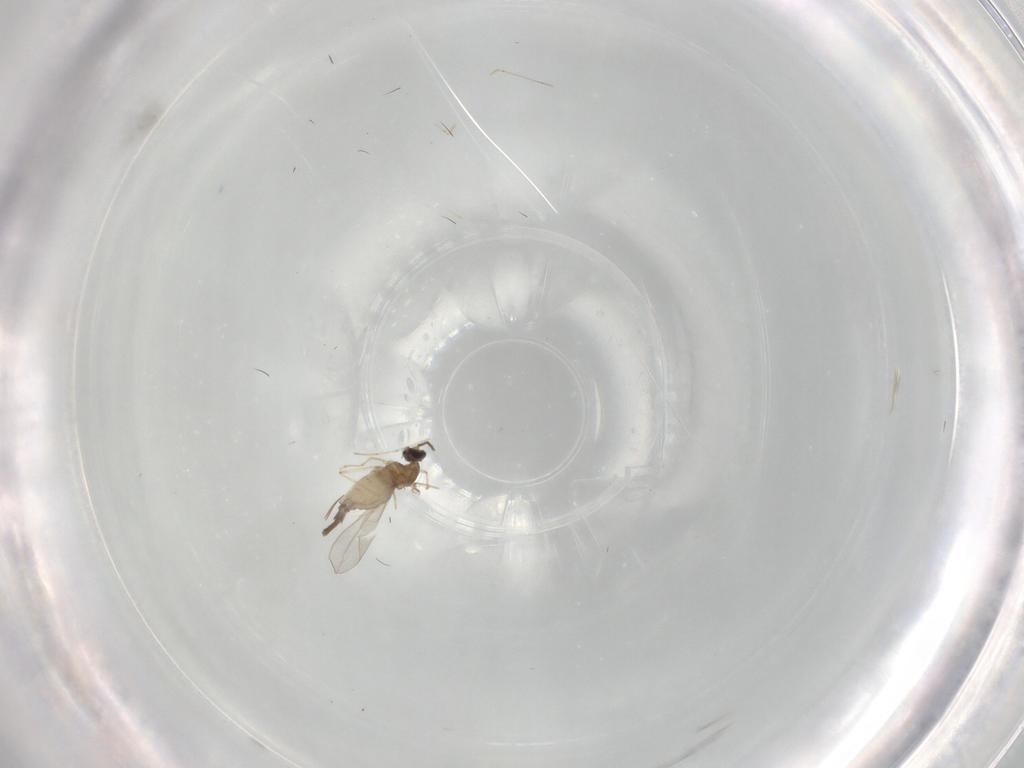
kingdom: Animalia
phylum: Arthropoda
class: Insecta
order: Diptera
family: Cecidomyiidae
